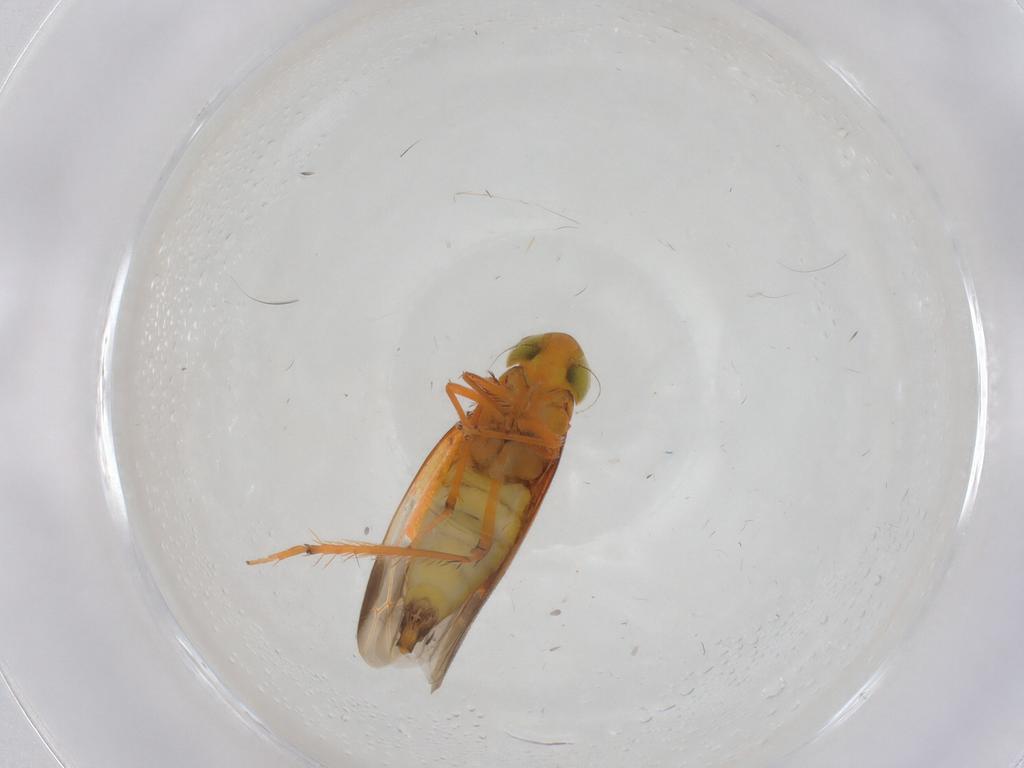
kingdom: Animalia
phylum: Arthropoda
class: Insecta
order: Hemiptera
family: Cicadellidae
